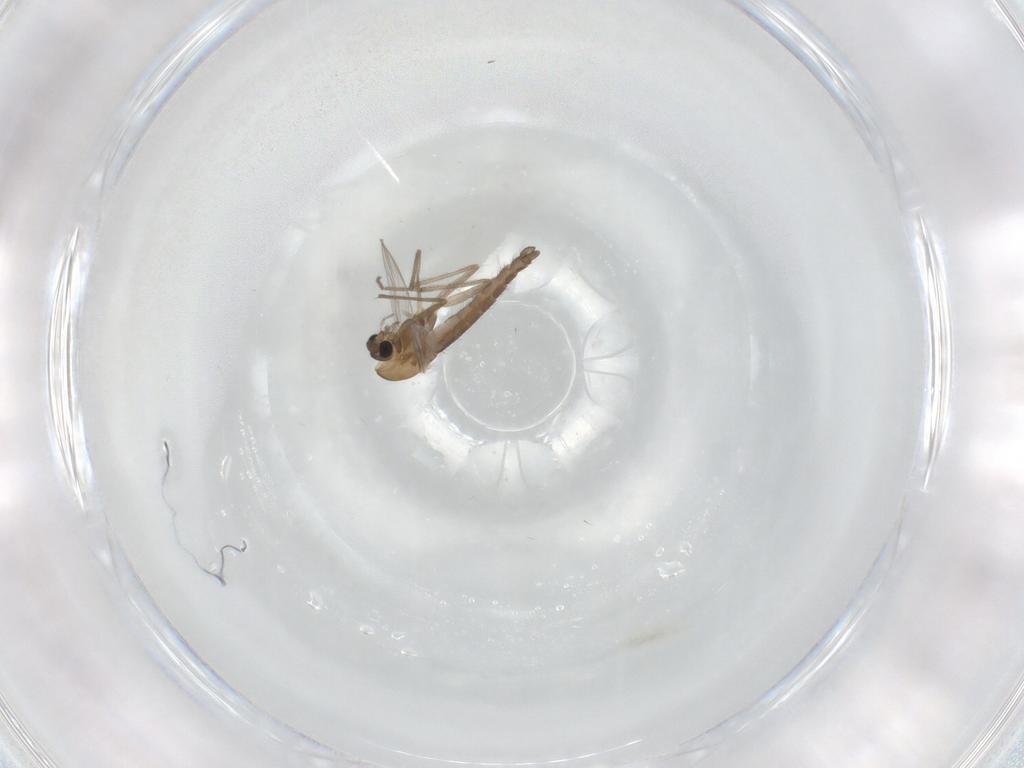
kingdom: Animalia
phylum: Arthropoda
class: Insecta
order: Diptera
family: Chironomidae
